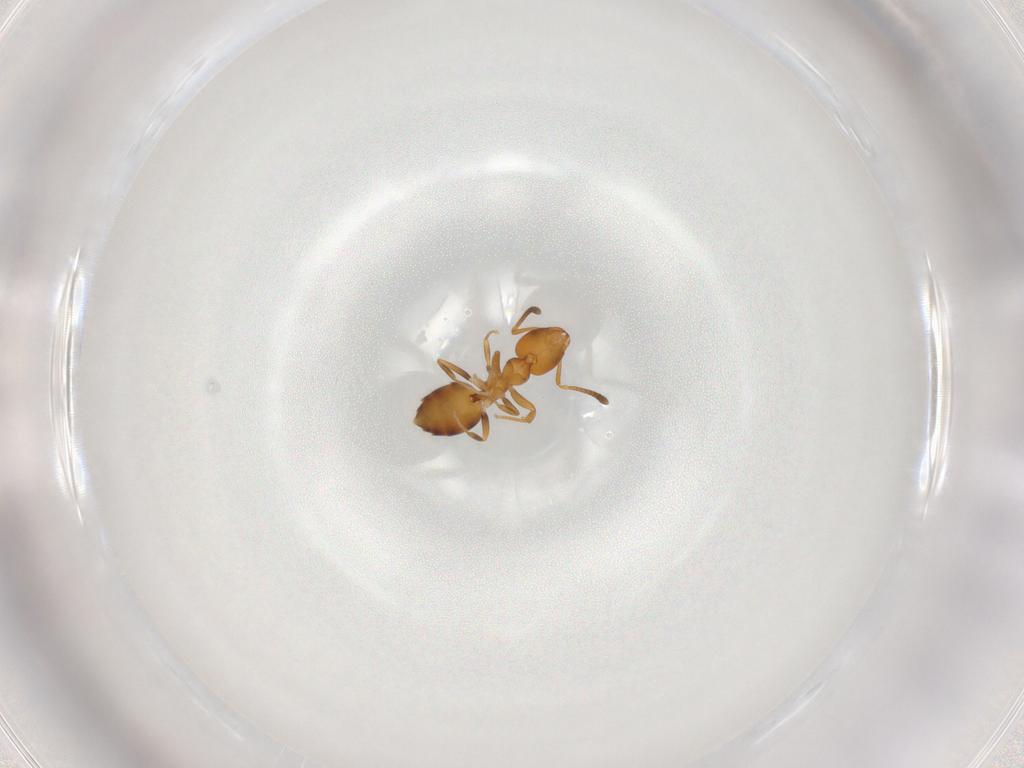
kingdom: Animalia
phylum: Arthropoda
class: Insecta
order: Hymenoptera
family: Formicidae
